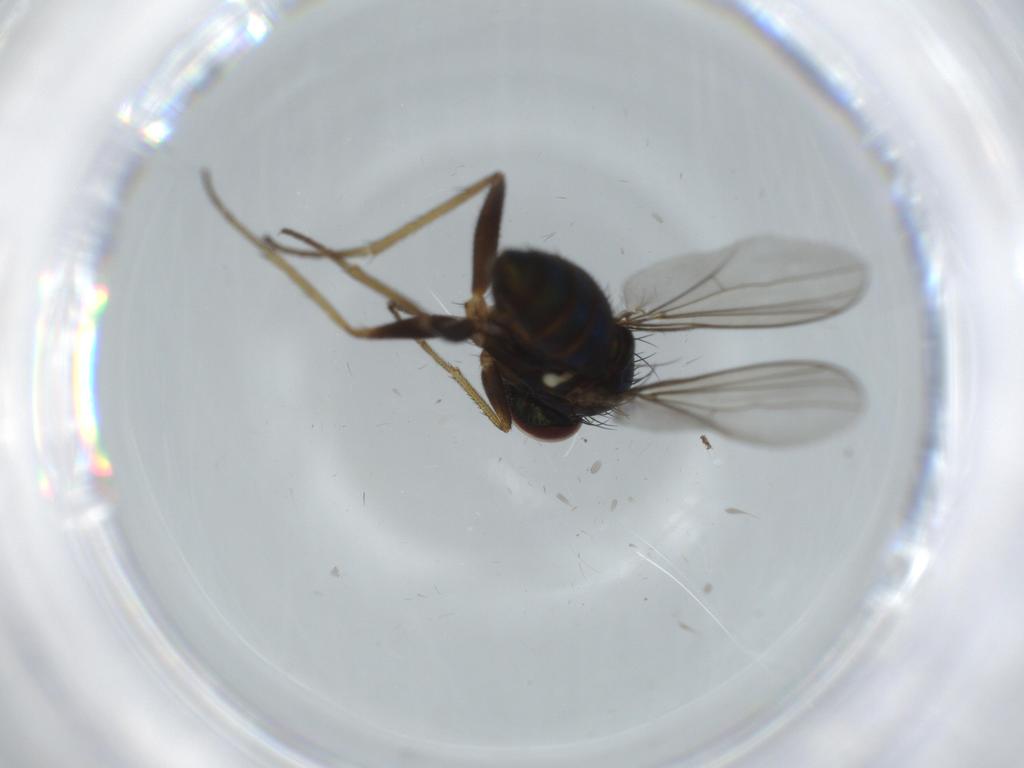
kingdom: Animalia
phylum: Arthropoda
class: Insecta
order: Diptera
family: Dolichopodidae
